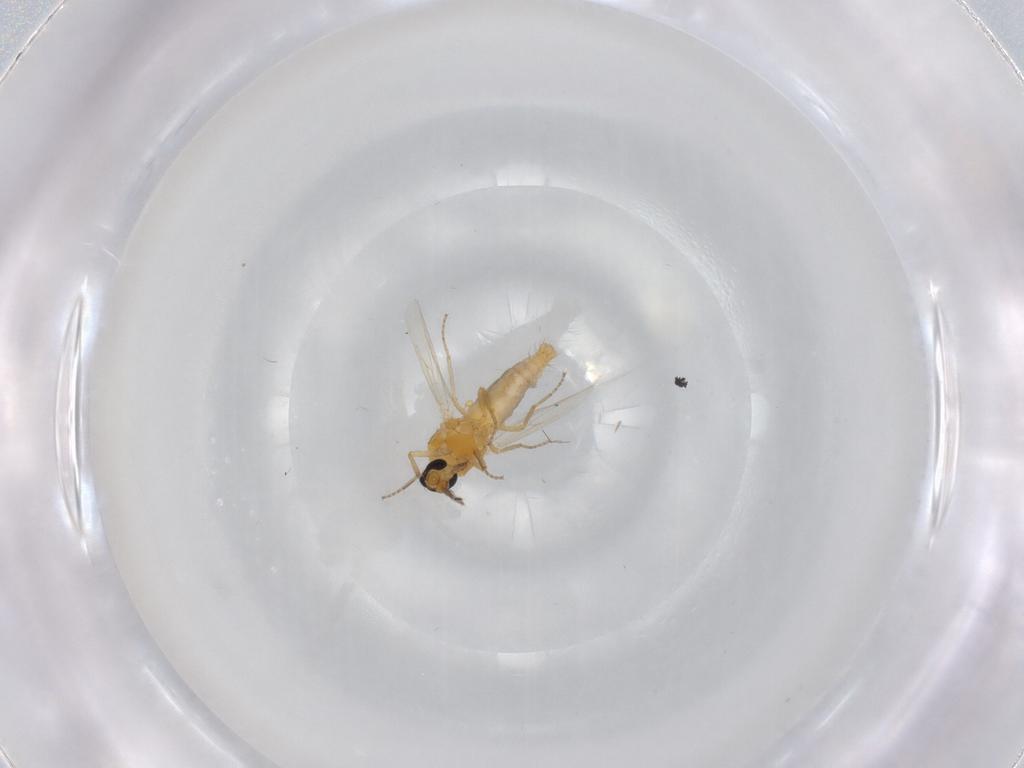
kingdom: Animalia
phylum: Arthropoda
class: Insecta
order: Diptera
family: Ceratopogonidae
